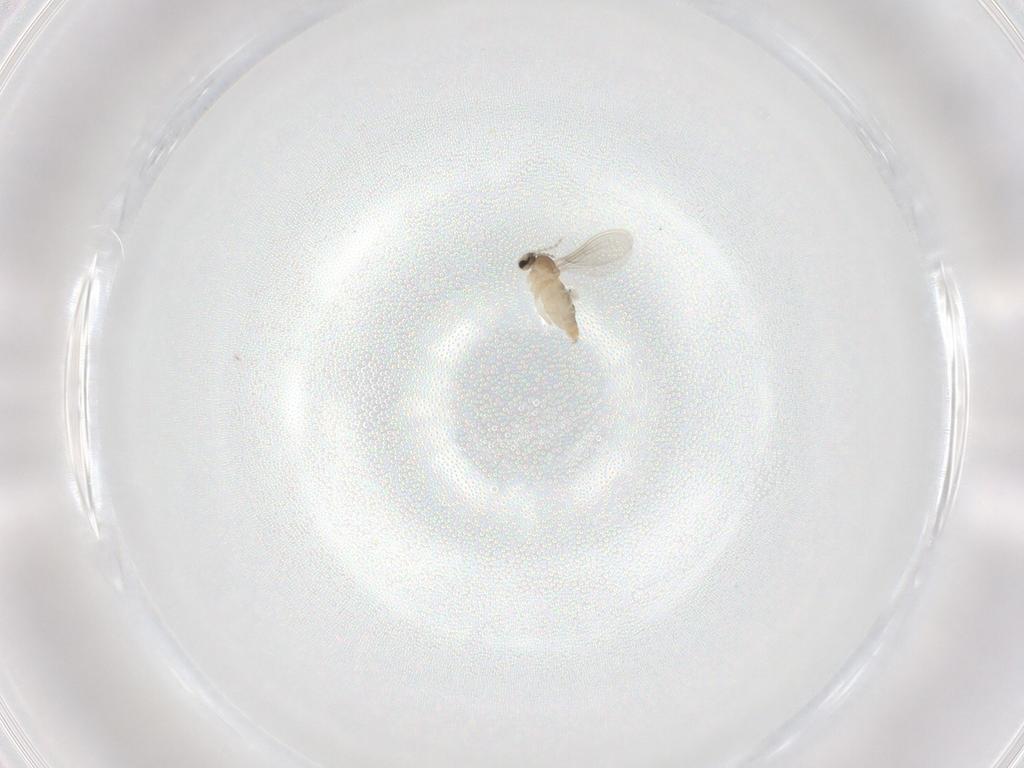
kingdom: Animalia
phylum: Arthropoda
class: Insecta
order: Diptera
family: Cecidomyiidae
